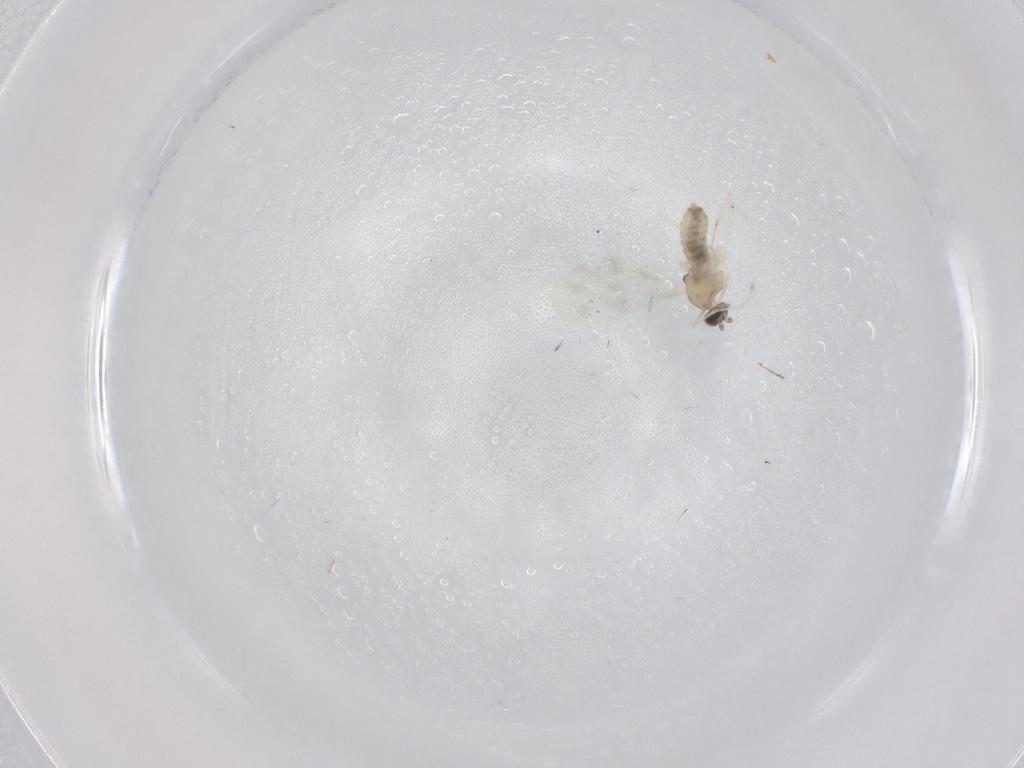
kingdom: Animalia
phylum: Arthropoda
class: Insecta
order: Diptera
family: Cecidomyiidae
